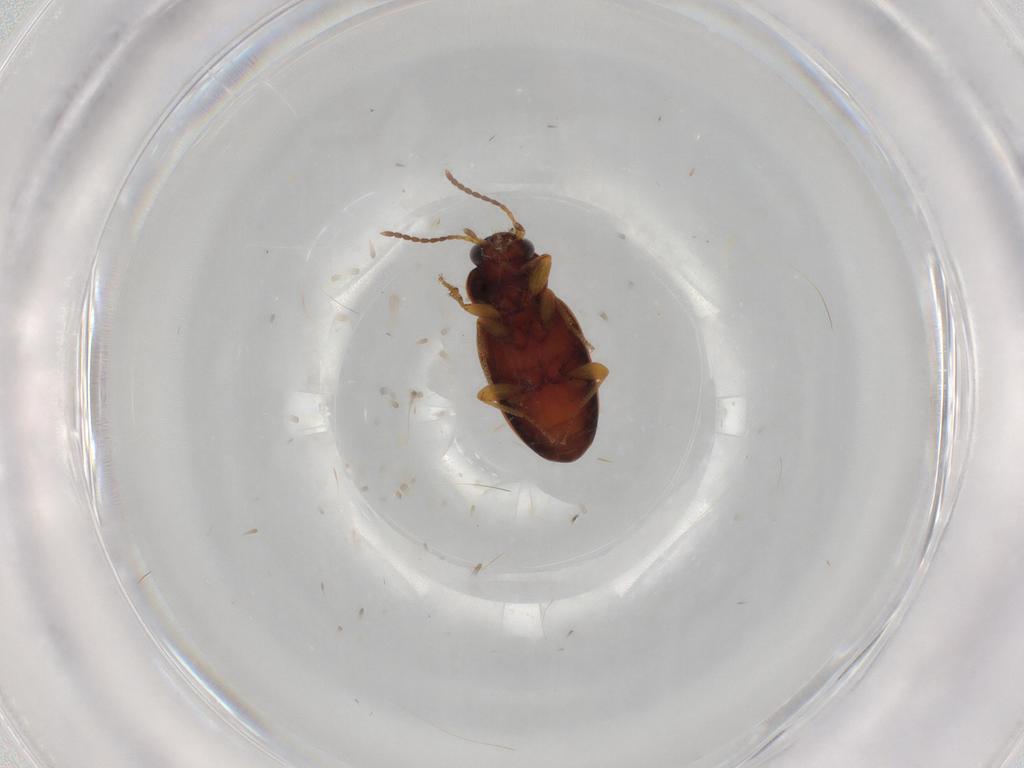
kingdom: Animalia
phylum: Arthropoda
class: Insecta
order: Coleoptera
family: Carabidae
